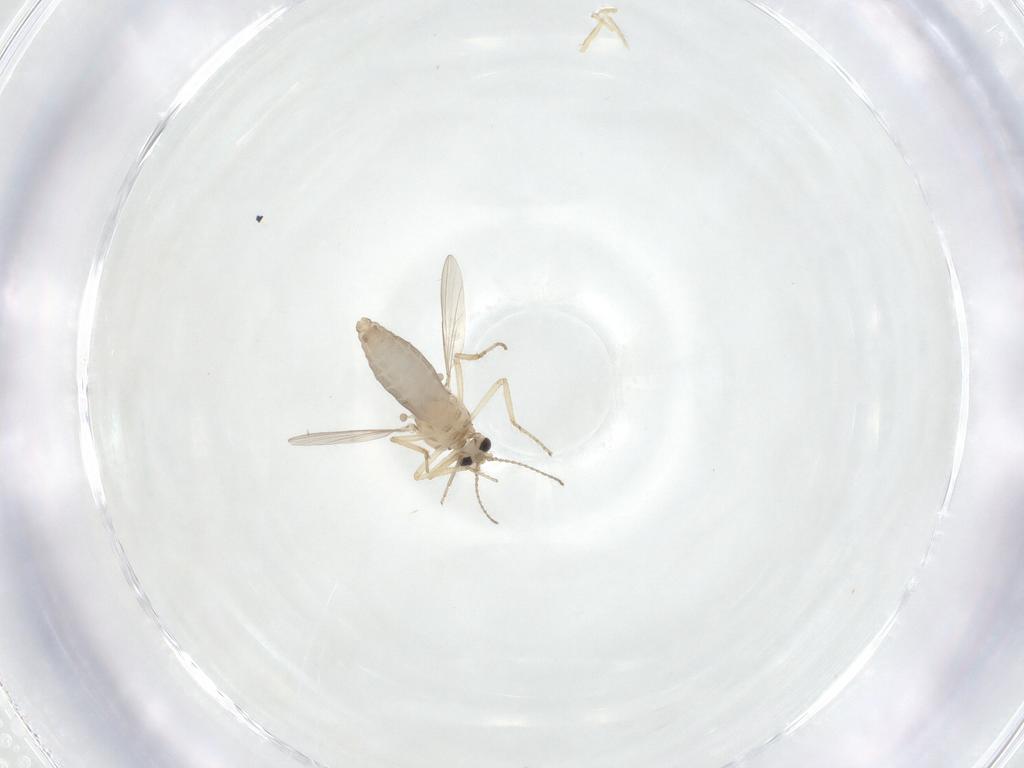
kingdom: Animalia
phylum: Arthropoda
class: Insecta
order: Diptera
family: Ceratopogonidae
